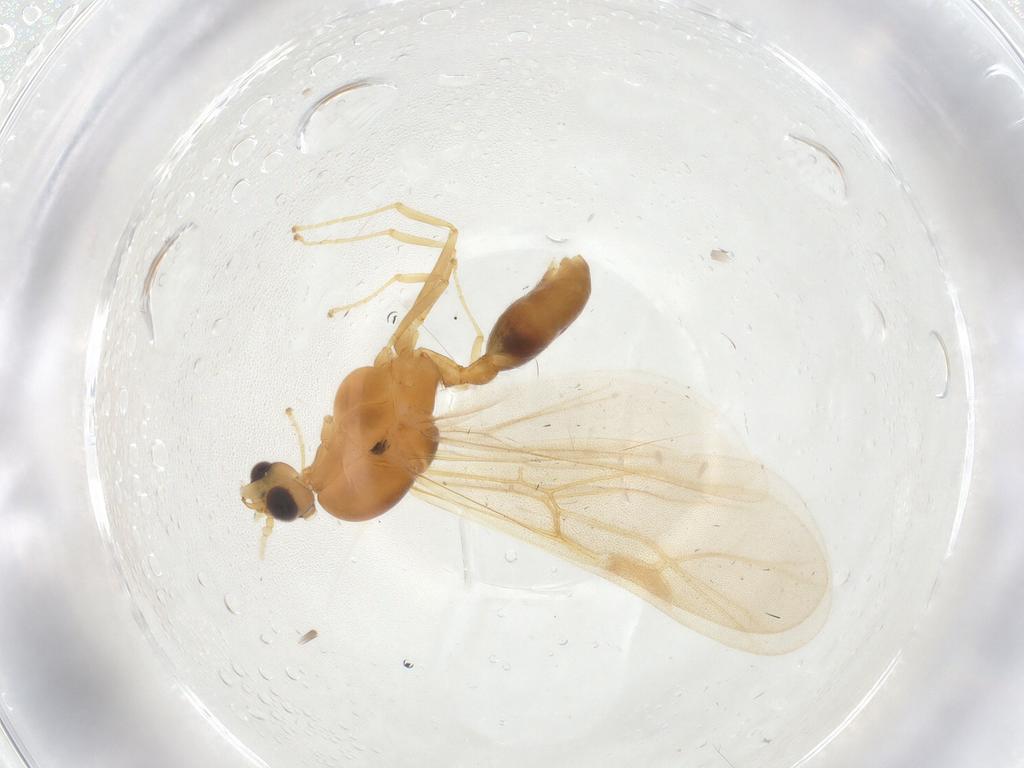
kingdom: Animalia
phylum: Arthropoda
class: Insecta
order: Hymenoptera
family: Formicidae
